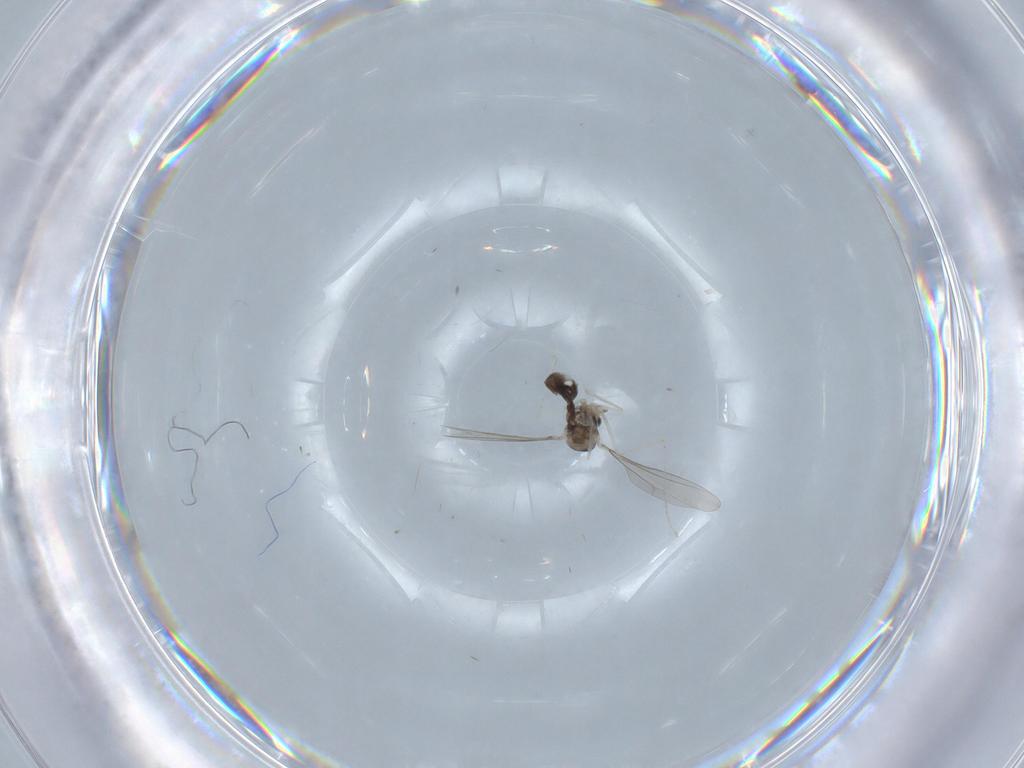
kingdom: Animalia
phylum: Arthropoda
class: Insecta
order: Diptera
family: Cecidomyiidae
